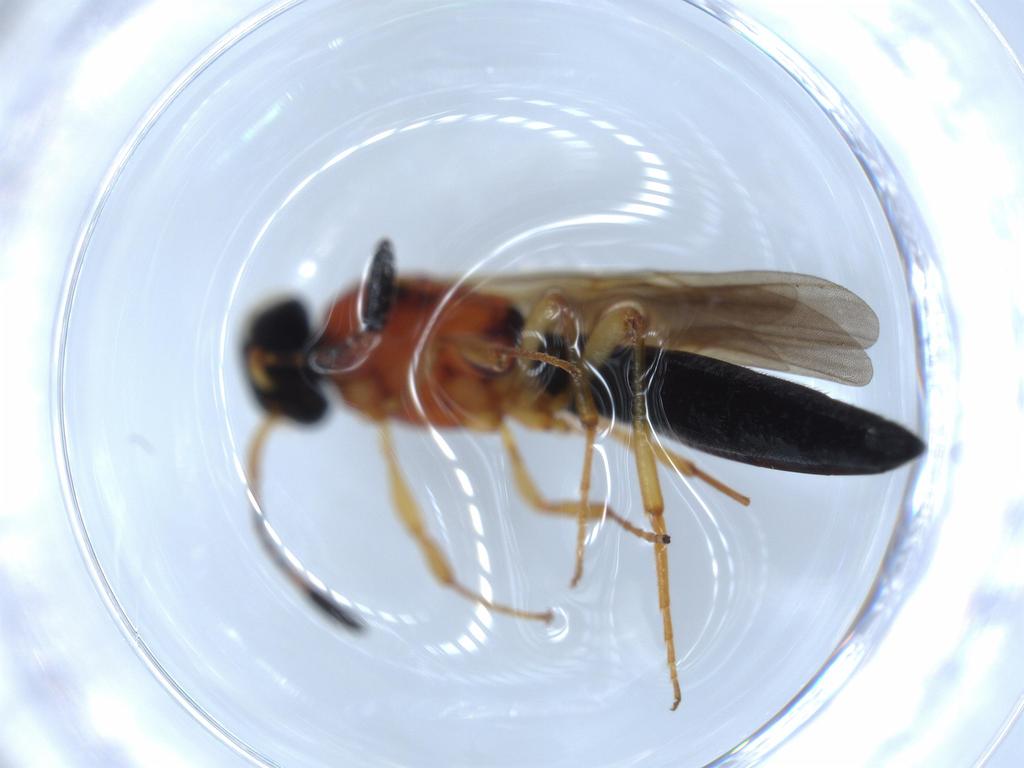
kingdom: Animalia
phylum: Arthropoda
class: Insecta
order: Hymenoptera
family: Scelionidae
